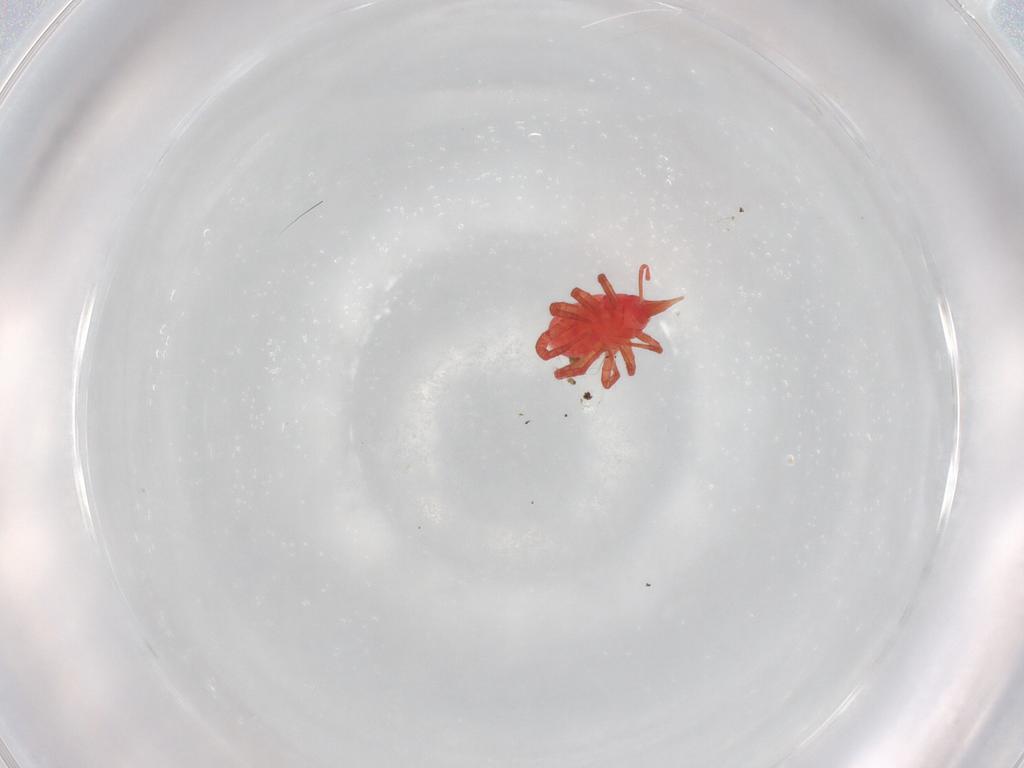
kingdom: Animalia
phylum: Arthropoda
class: Arachnida
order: Sarcoptiformes
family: Eremaeidae
